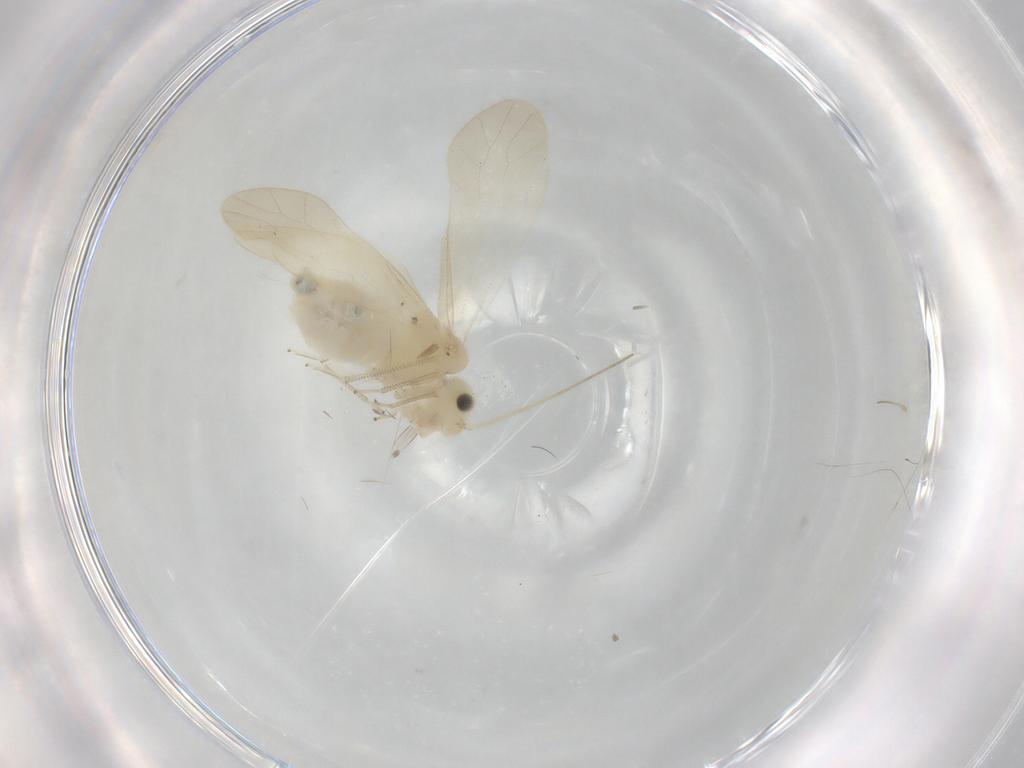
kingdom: Animalia
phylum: Arthropoda
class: Insecta
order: Psocodea
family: Caeciliusidae
